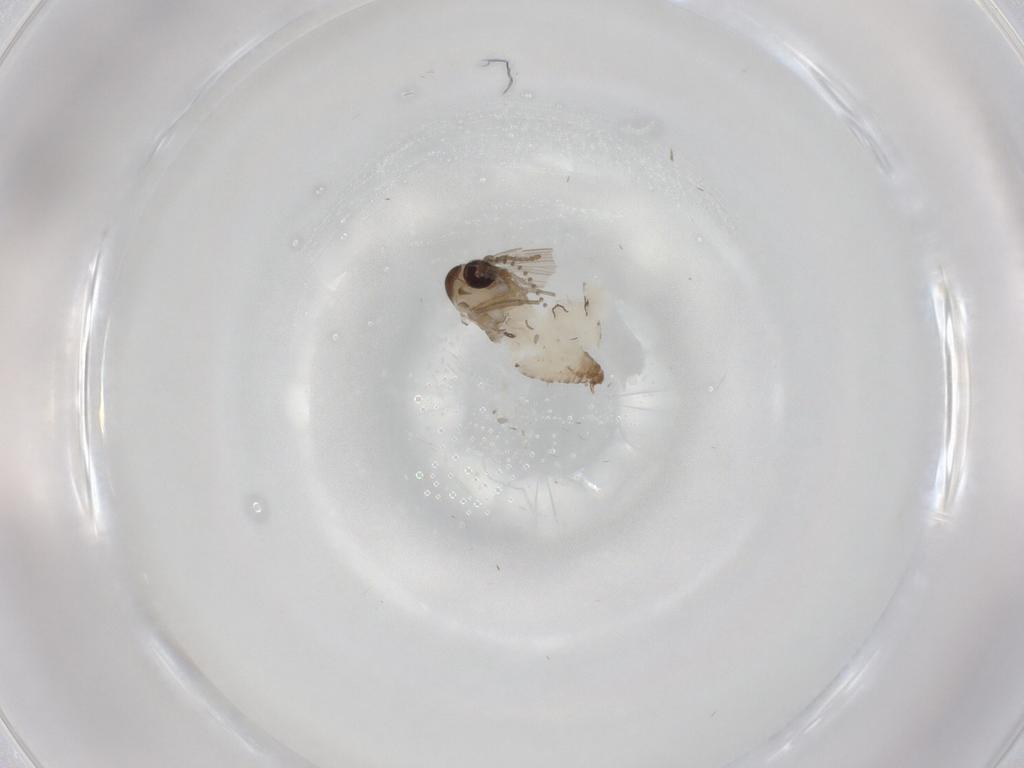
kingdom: Animalia
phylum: Arthropoda
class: Insecta
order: Diptera
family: Psychodidae
